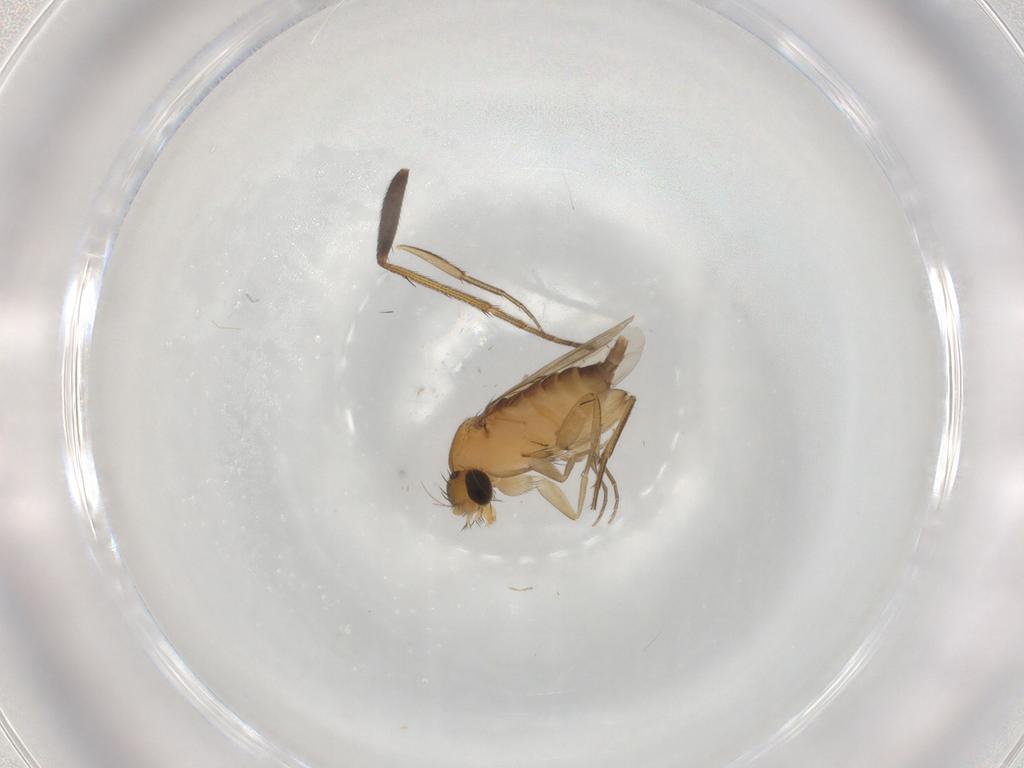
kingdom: Animalia
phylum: Arthropoda
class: Insecta
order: Diptera
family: Phoridae
